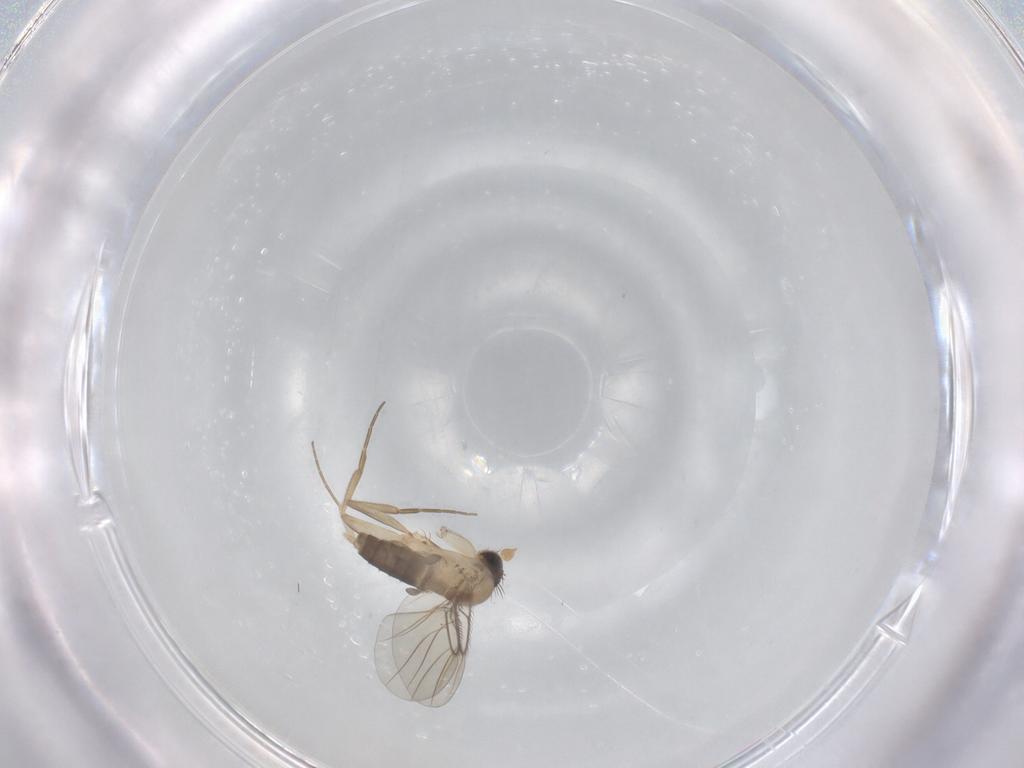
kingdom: Animalia
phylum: Arthropoda
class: Insecta
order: Diptera
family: Phoridae
